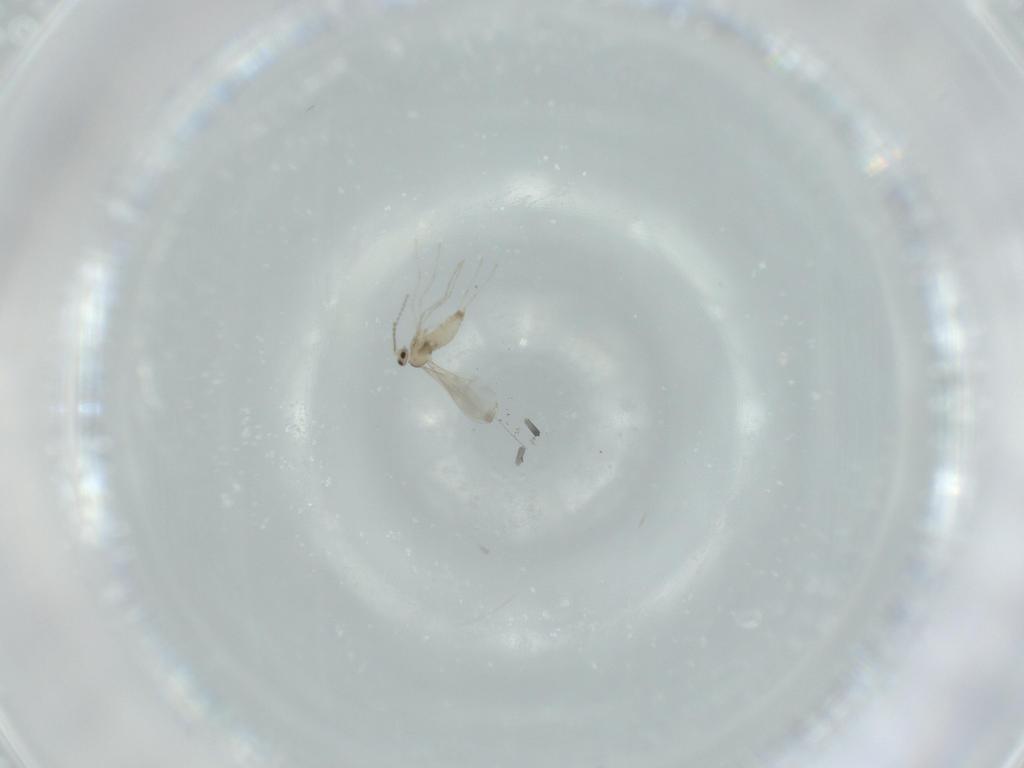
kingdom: Animalia
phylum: Arthropoda
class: Insecta
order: Diptera
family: Cecidomyiidae
